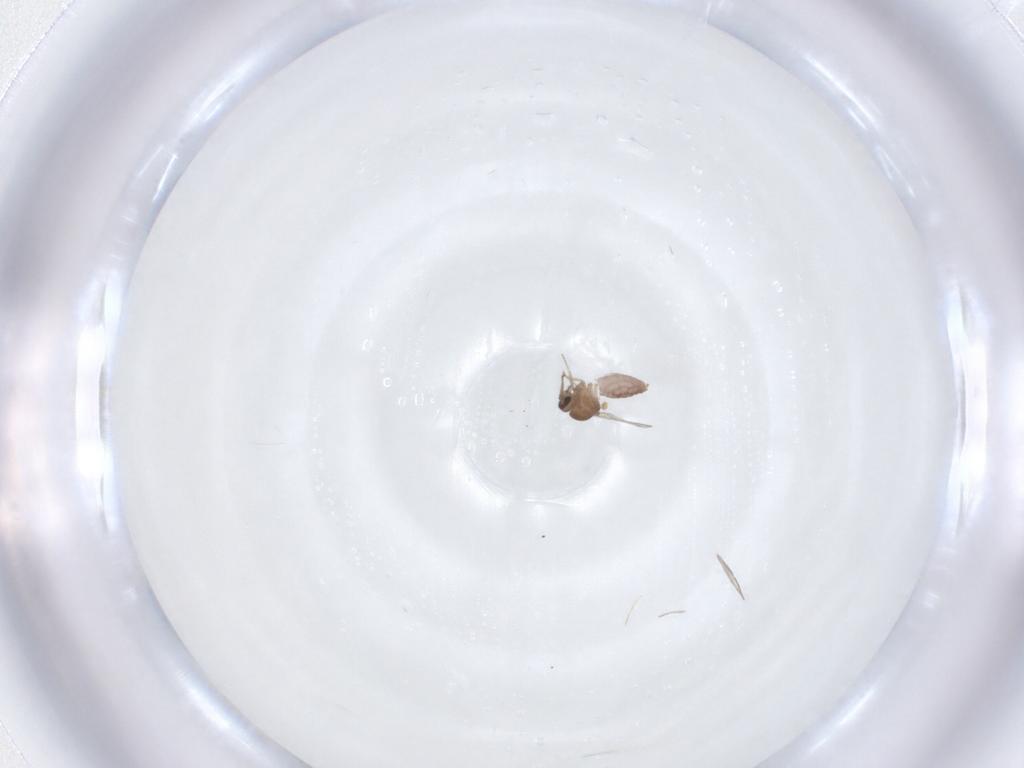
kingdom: Animalia
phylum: Arthropoda
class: Insecta
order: Diptera
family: Ceratopogonidae
